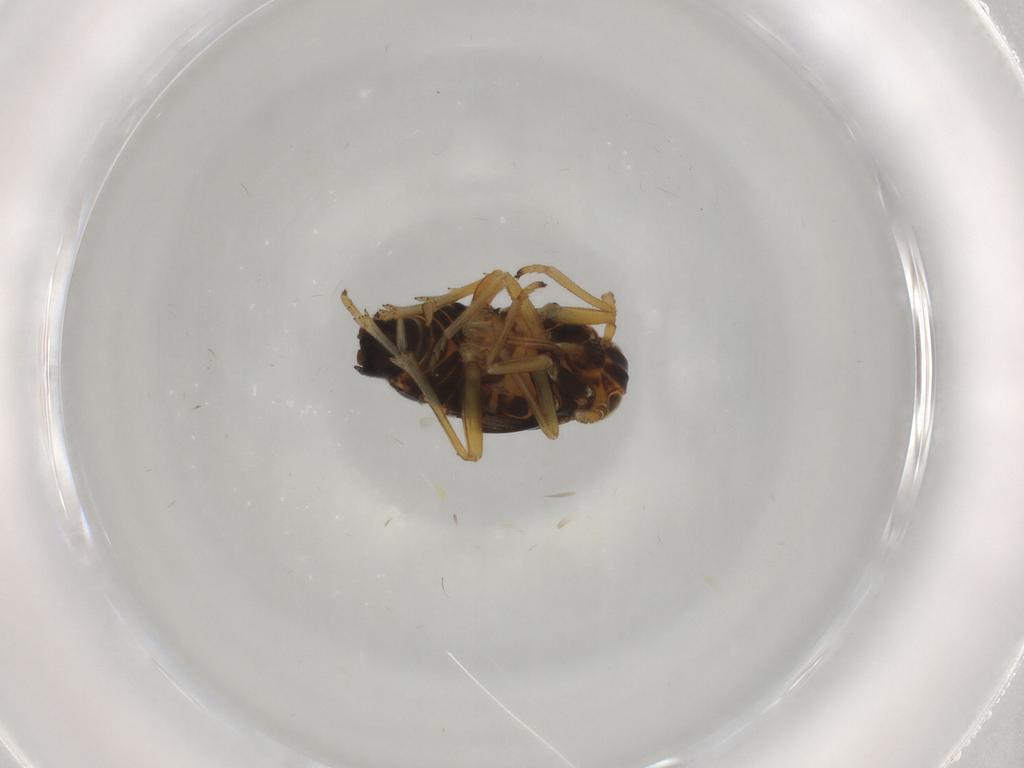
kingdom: Animalia
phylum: Arthropoda
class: Insecta
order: Hemiptera
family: Delphacidae
